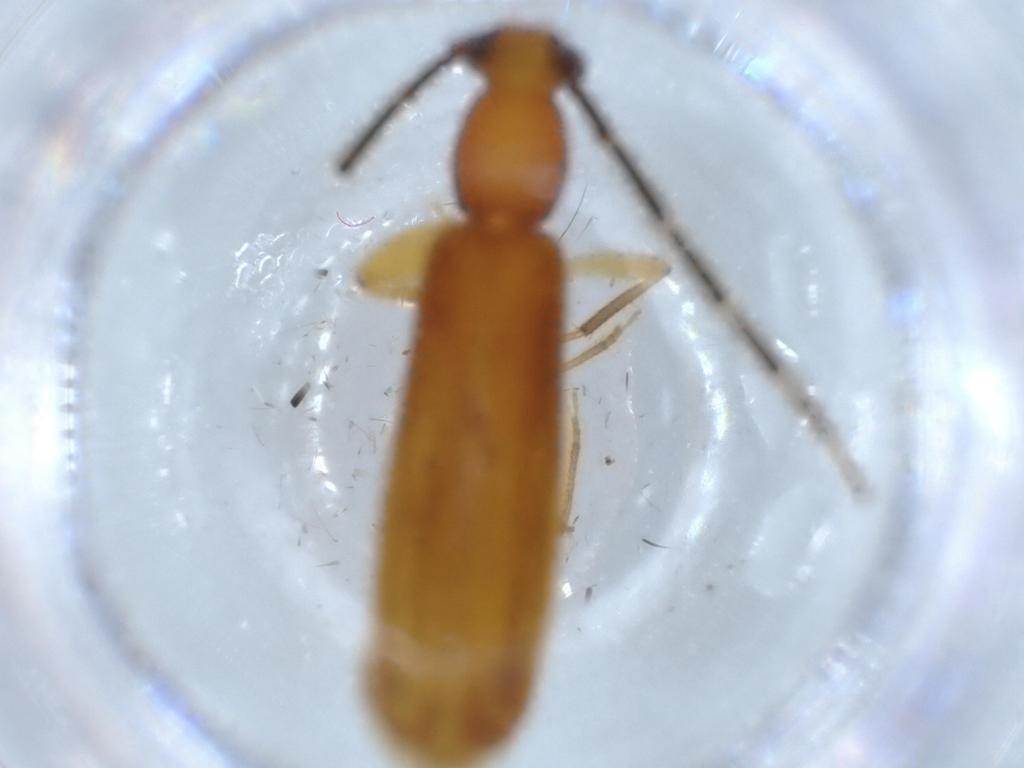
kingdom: Animalia
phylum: Arthropoda
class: Insecta
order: Coleoptera
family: Cerambycidae
